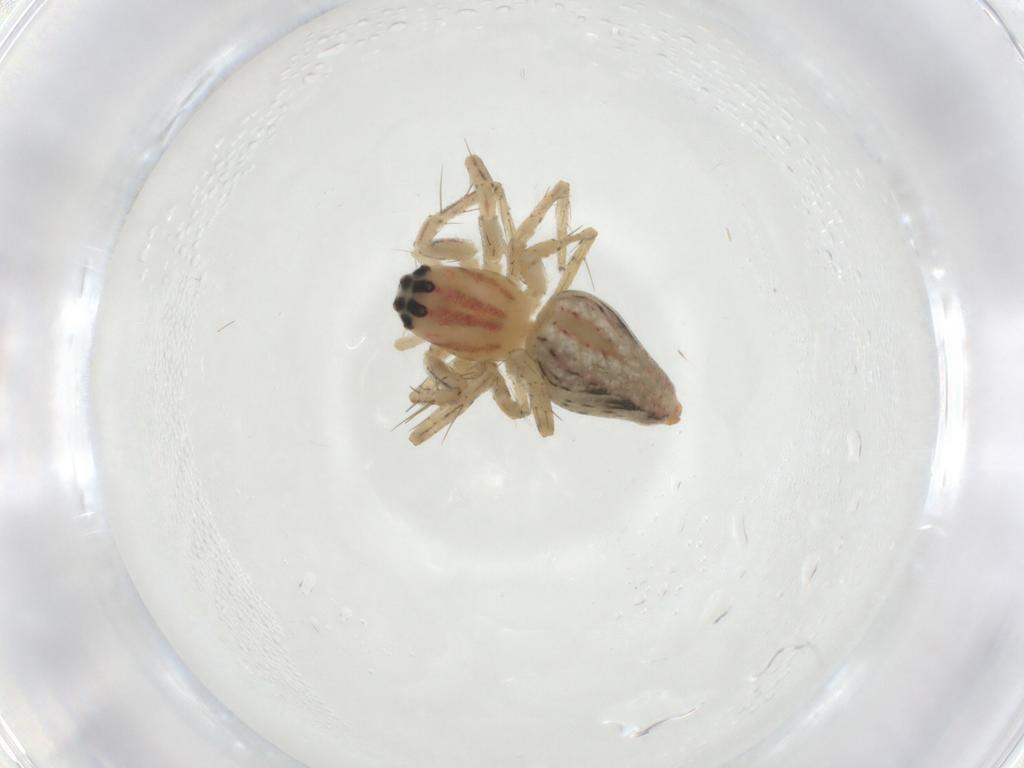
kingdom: Animalia
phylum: Arthropoda
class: Arachnida
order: Araneae
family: Oxyopidae
